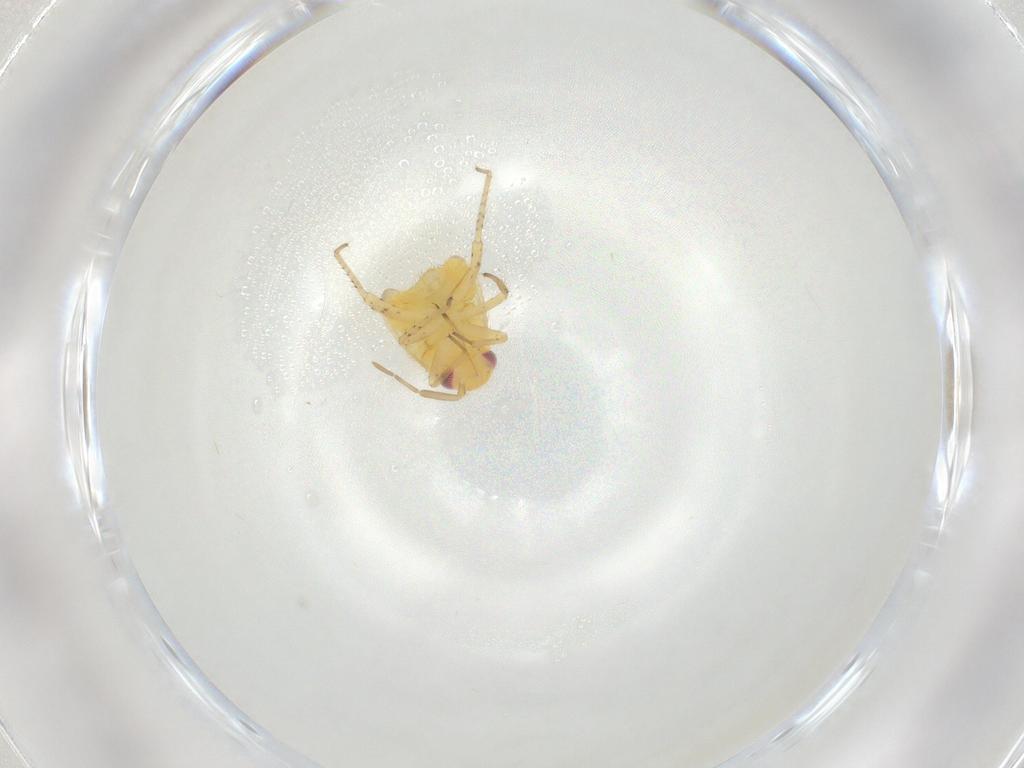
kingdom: Animalia
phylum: Arthropoda
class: Insecta
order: Hemiptera
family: Miridae
